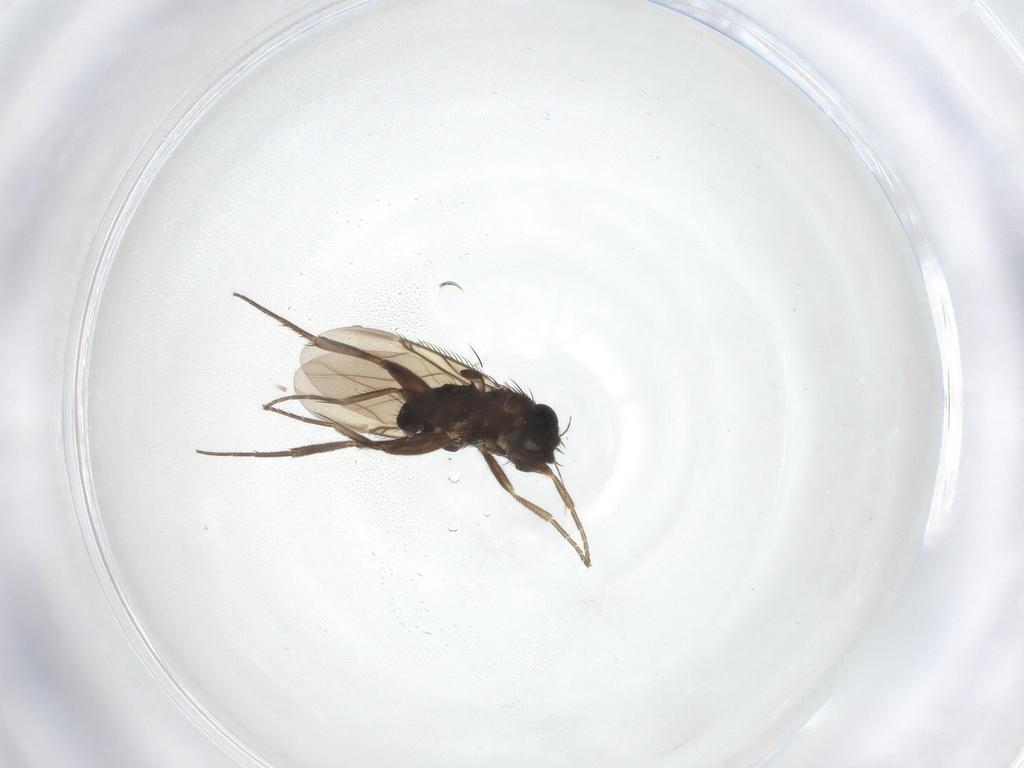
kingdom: Animalia
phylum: Arthropoda
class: Insecta
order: Diptera
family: Phoridae
